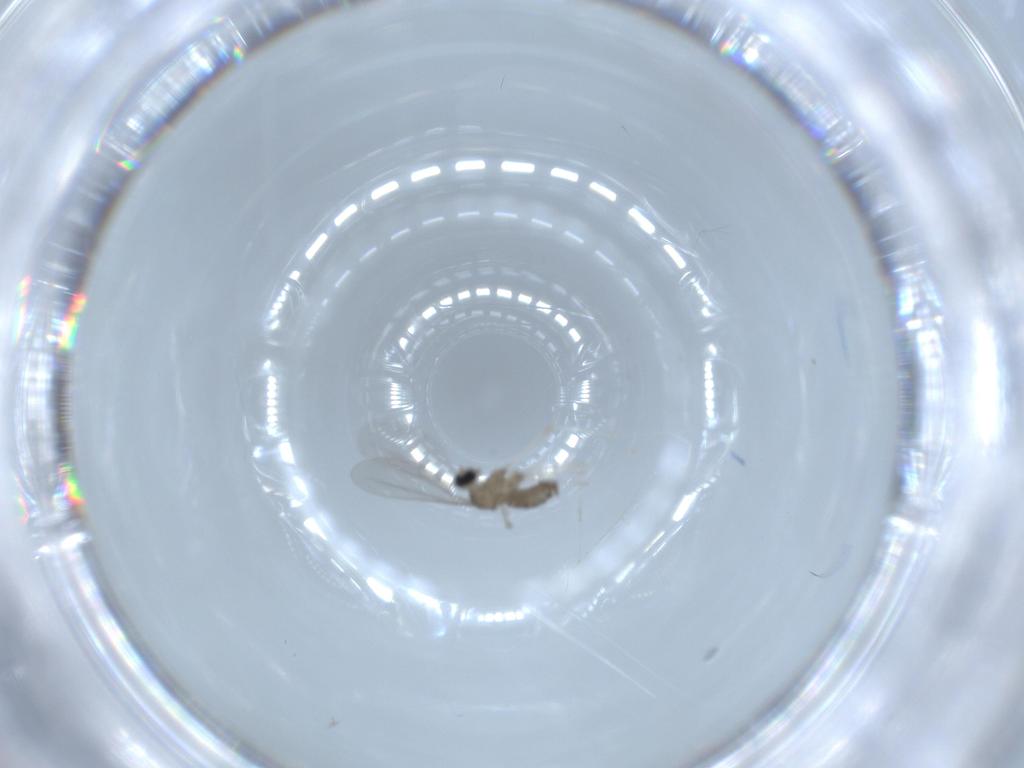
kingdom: Animalia
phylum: Arthropoda
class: Insecta
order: Diptera
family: Cecidomyiidae
